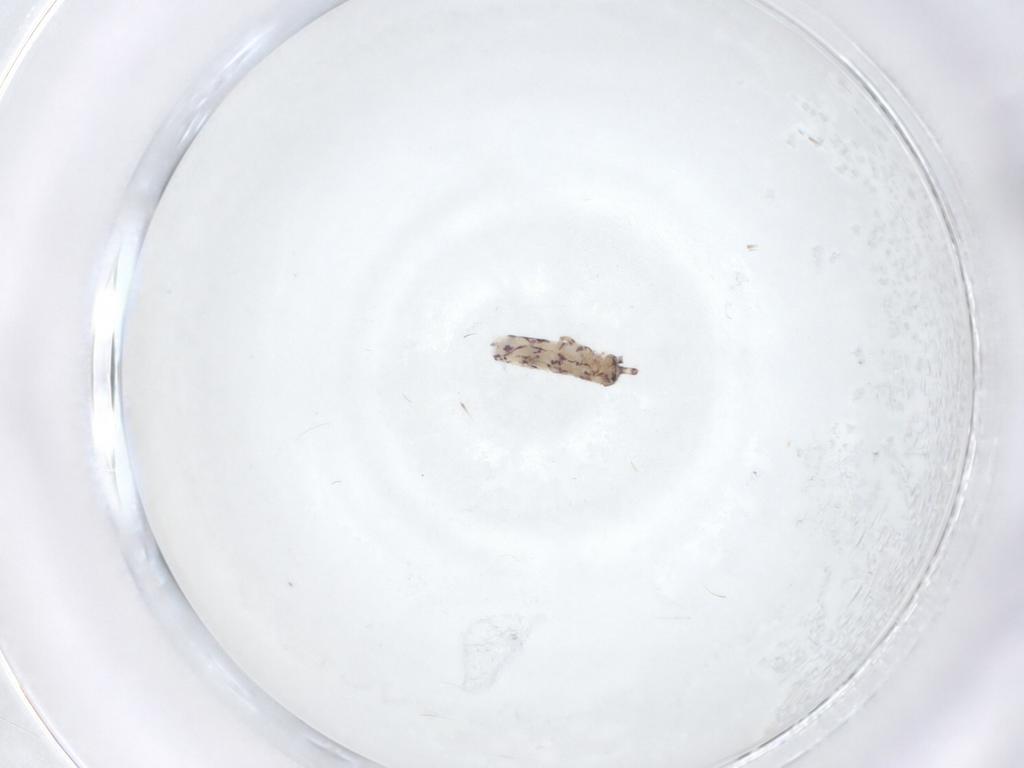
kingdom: Animalia
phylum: Arthropoda
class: Collembola
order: Entomobryomorpha
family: Entomobryidae
